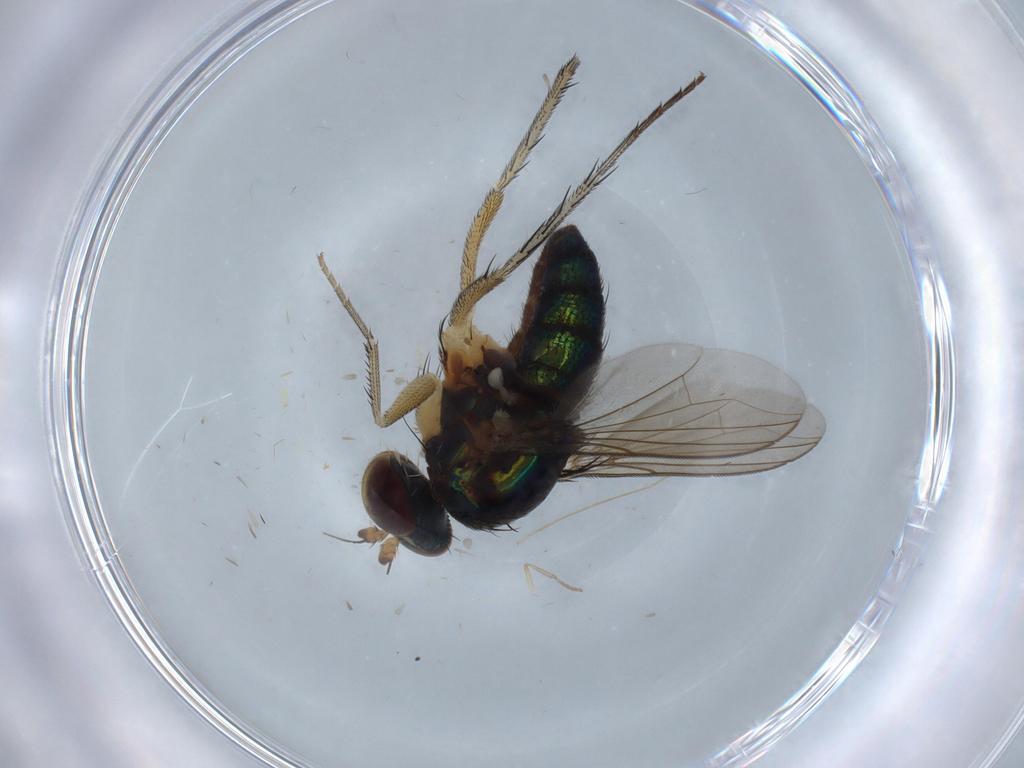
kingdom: Animalia
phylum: Arthropoda
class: Insecta
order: Diptera
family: Dolichopodidae
